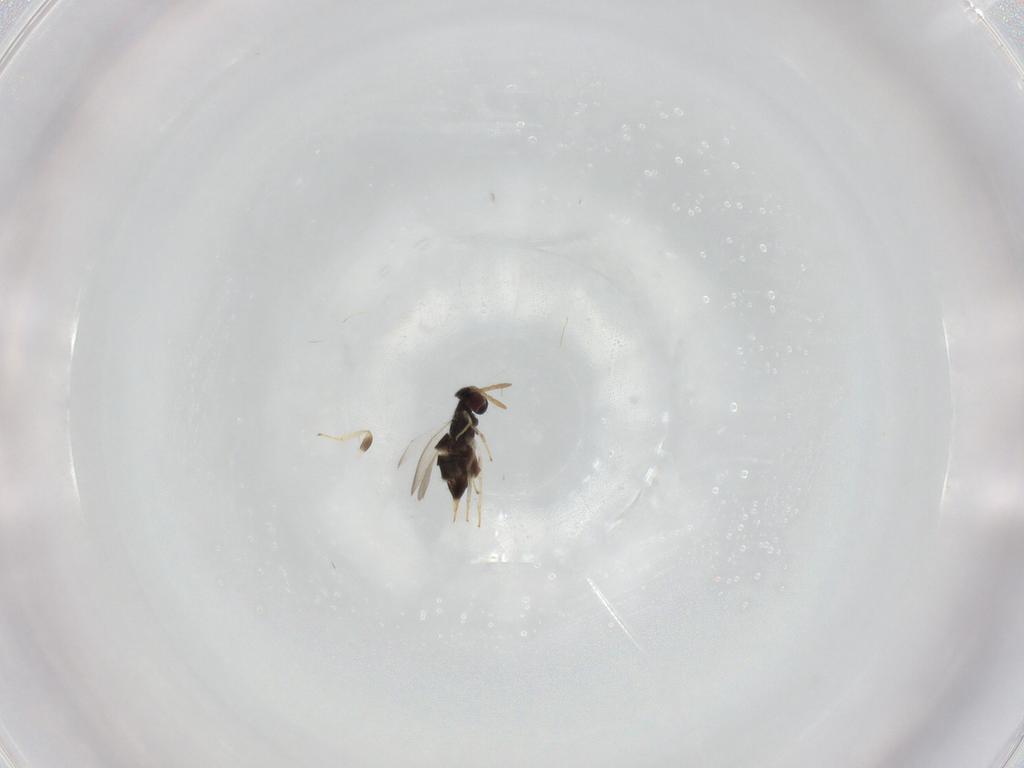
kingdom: Animalia
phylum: Arthropoda
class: Insecta
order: Hymenoptera
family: Aphelinidae
